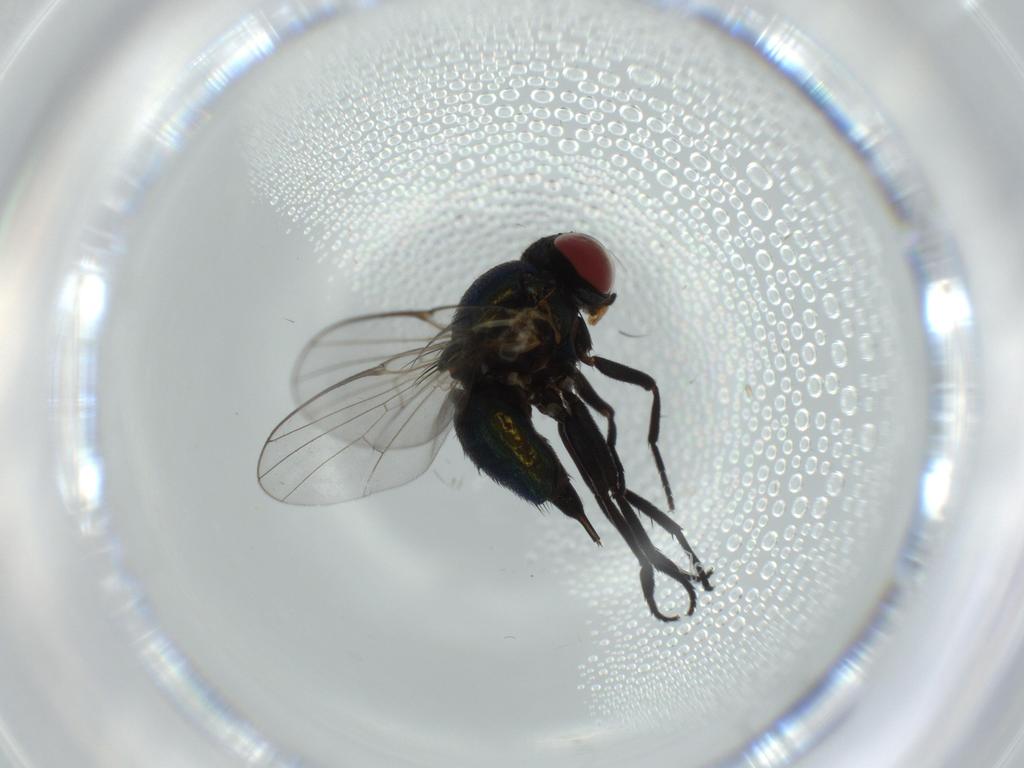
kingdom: Animalia
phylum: Arthropoda
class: Insecta
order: Diptera
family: Agromyzidae
